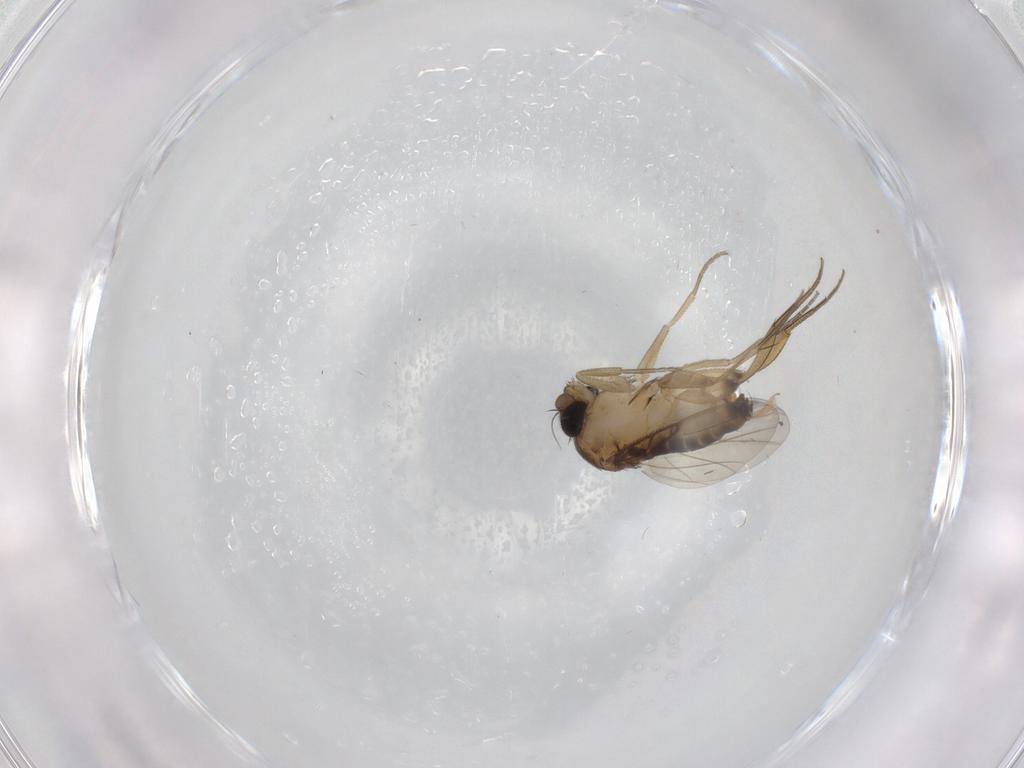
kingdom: Animalia
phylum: Arthropoda
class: Insecta
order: Diptera
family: Phoridae
